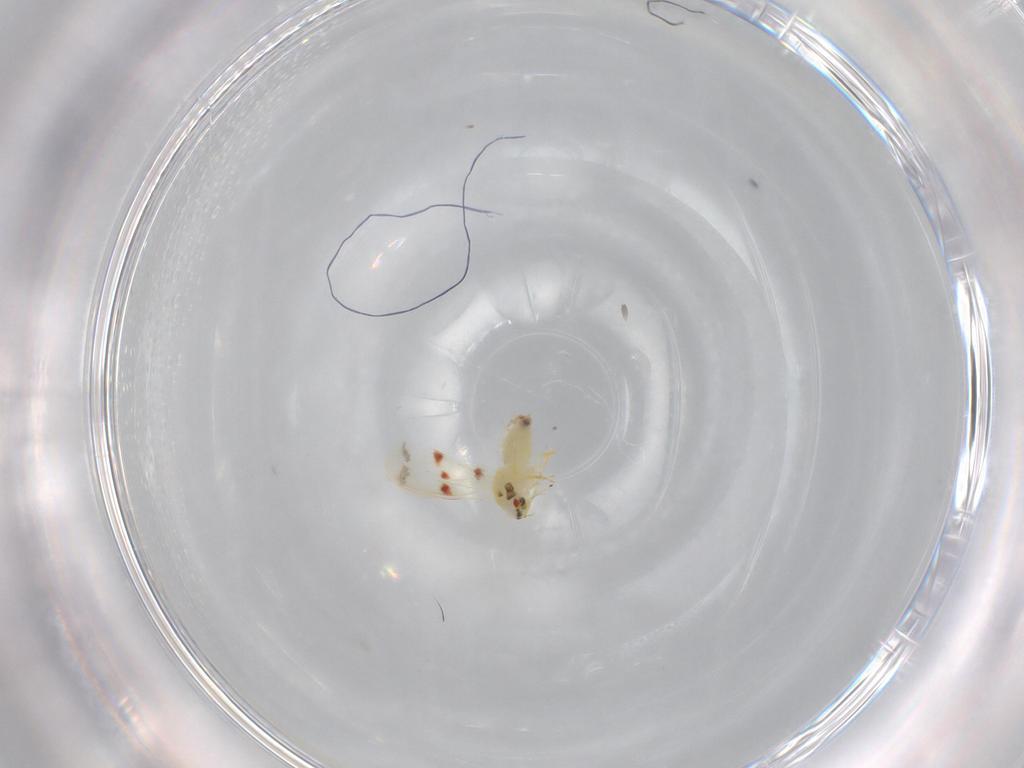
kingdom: Animalia
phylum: Arthropoda
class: Insecta
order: Hemiptera
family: Aleyrodidae
